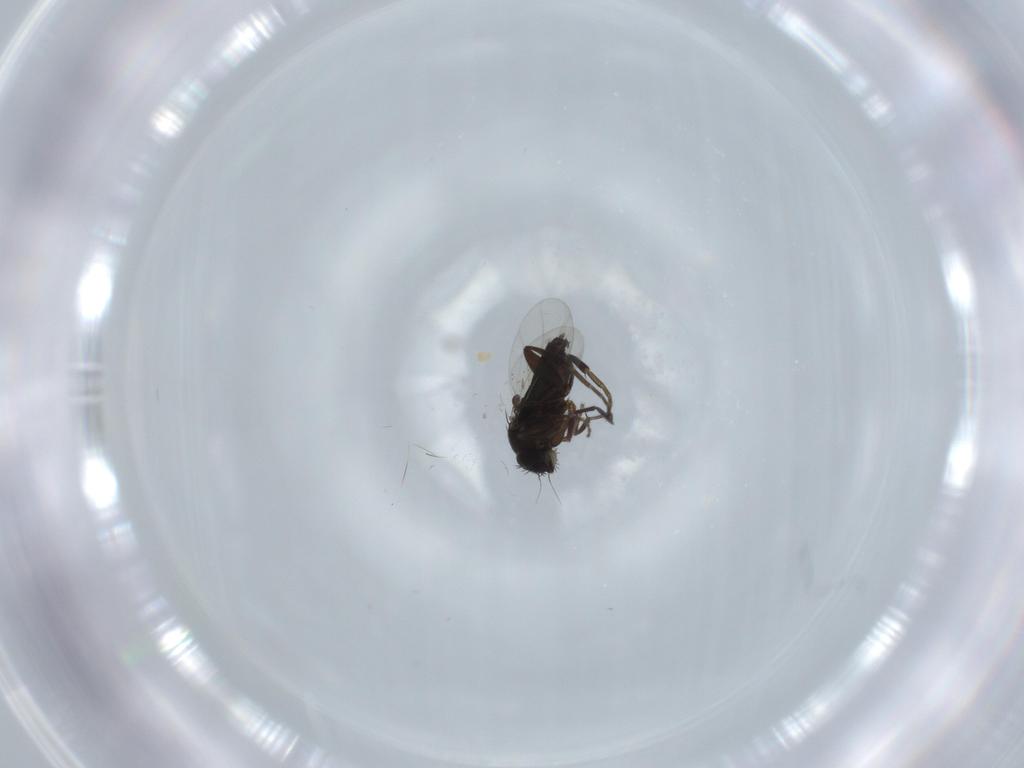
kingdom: Animalia
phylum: Arthropoda
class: Insecta
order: Diptera
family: Phoridae
